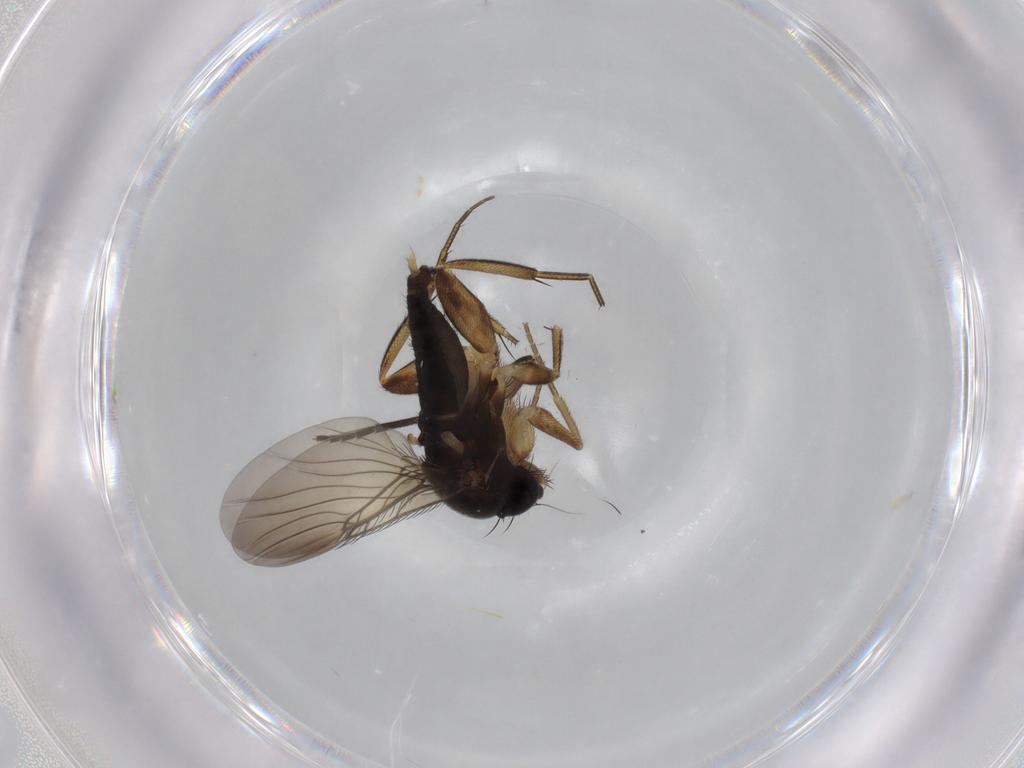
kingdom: Animalia
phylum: Arthropoda
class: Insecta
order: Diptera
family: Phoridae
